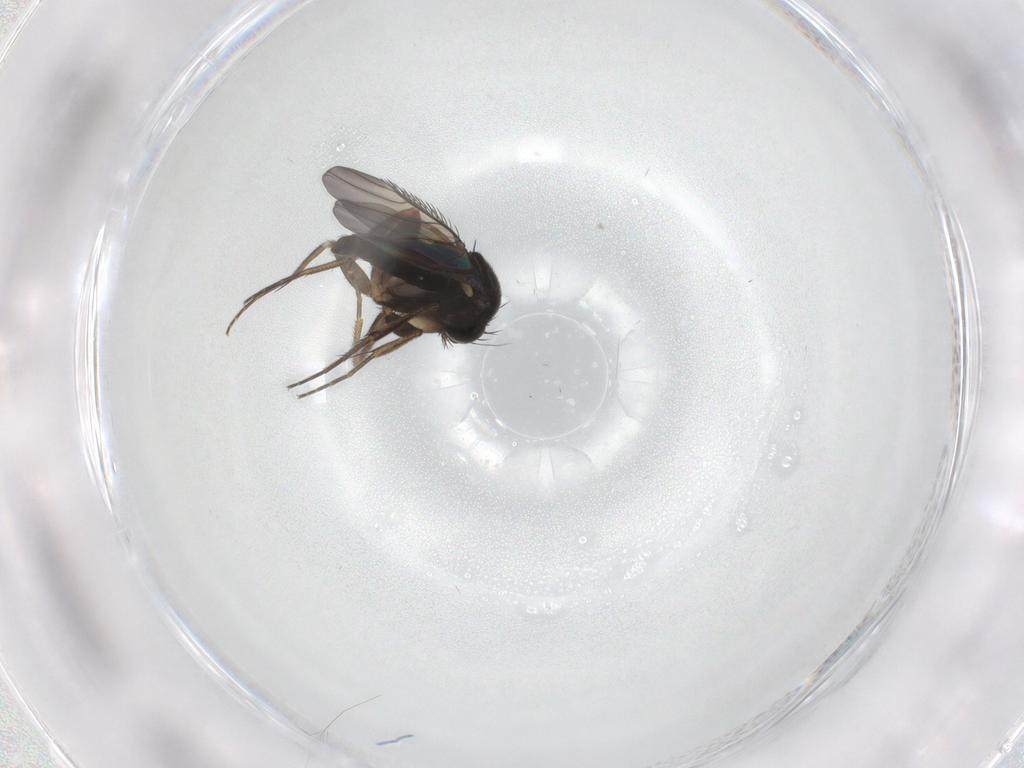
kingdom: Animalia
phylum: Arthropoda
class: Insecta
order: Diptera
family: Phoridae
